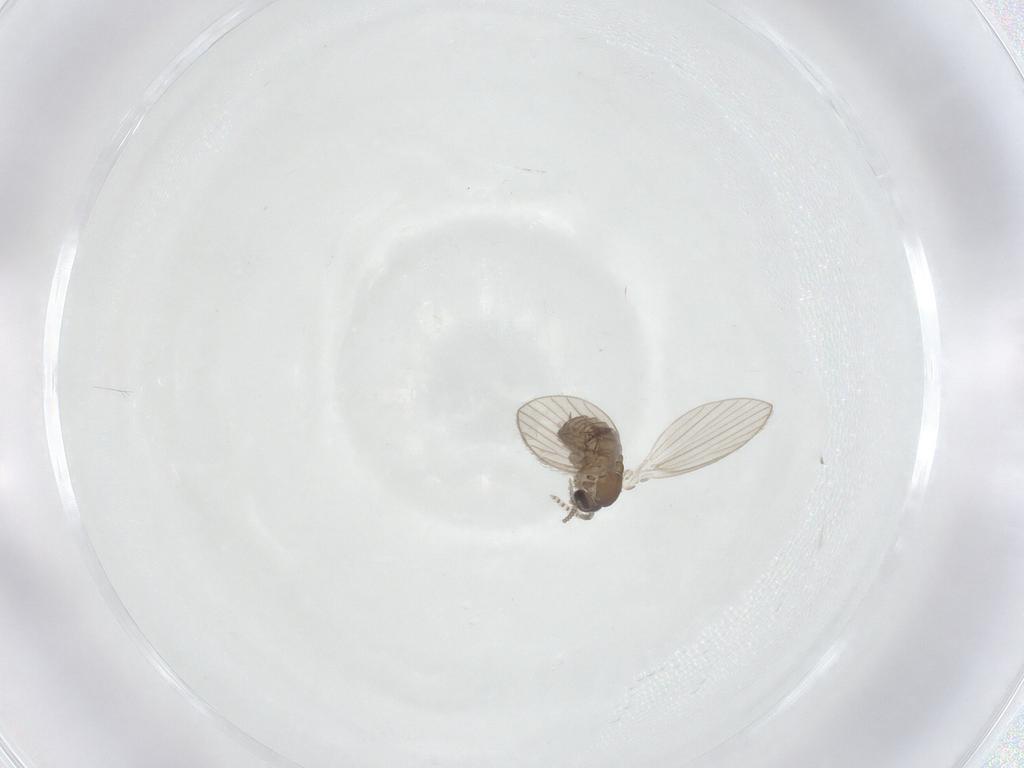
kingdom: Animalia
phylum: Arthropoda
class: Insecta
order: Diptera
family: Psychodidae
